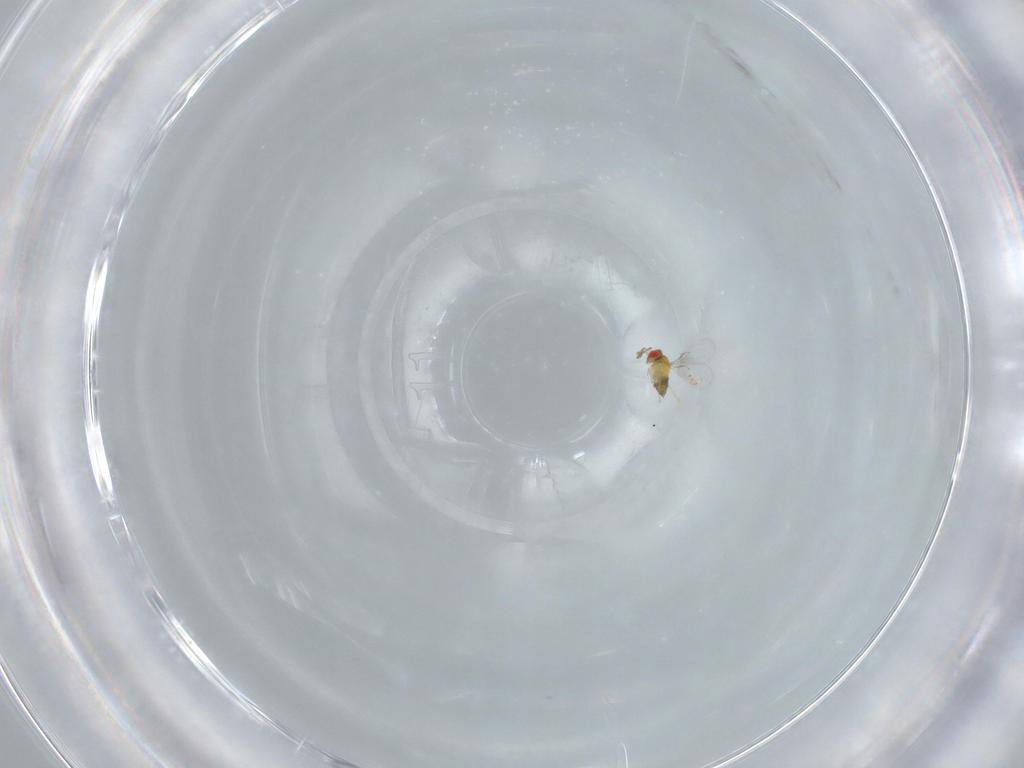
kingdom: Animalia
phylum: Arthropoda
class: Insecta
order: Hymenoptera
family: Trichogrammatidae
